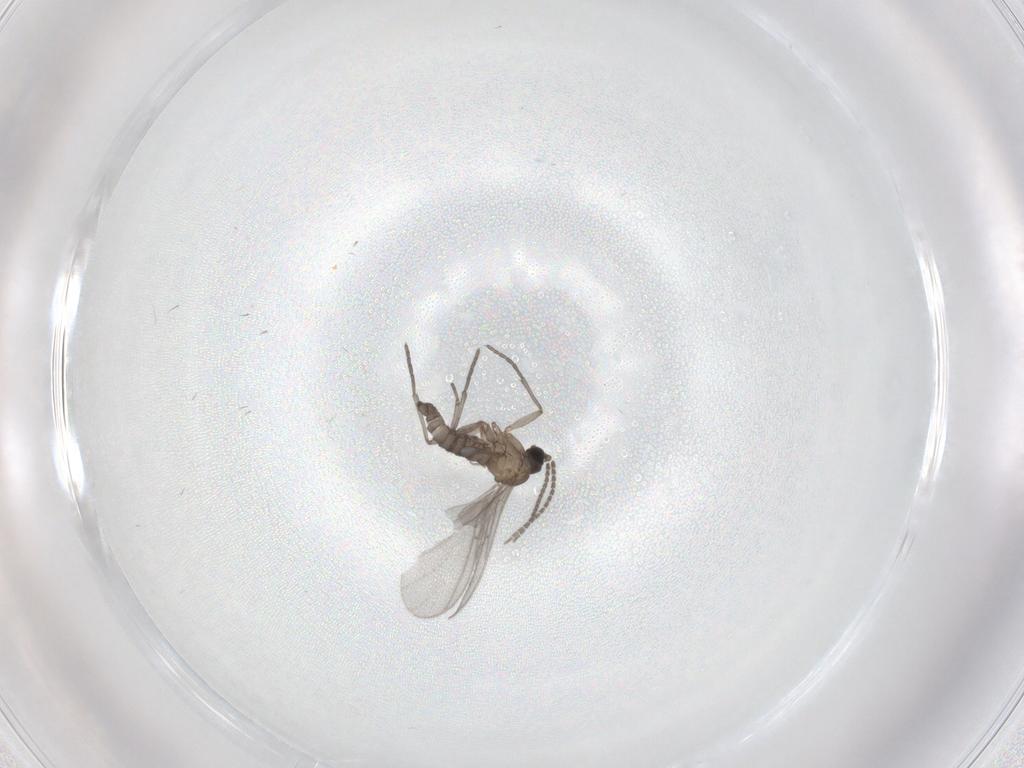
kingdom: Animalia
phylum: Arthropoda
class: Insecta
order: Diptera
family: Sciaridae
